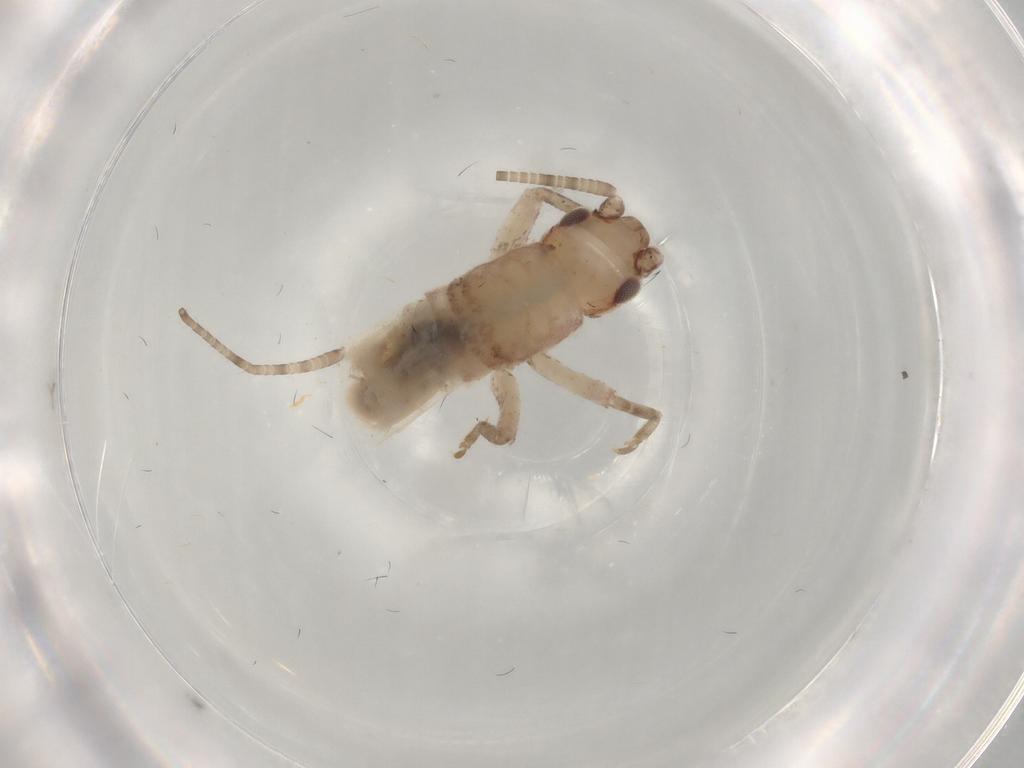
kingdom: Animalia
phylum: Arthropoda
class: Insecta
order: Orthoptera
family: Mogoplistidae
